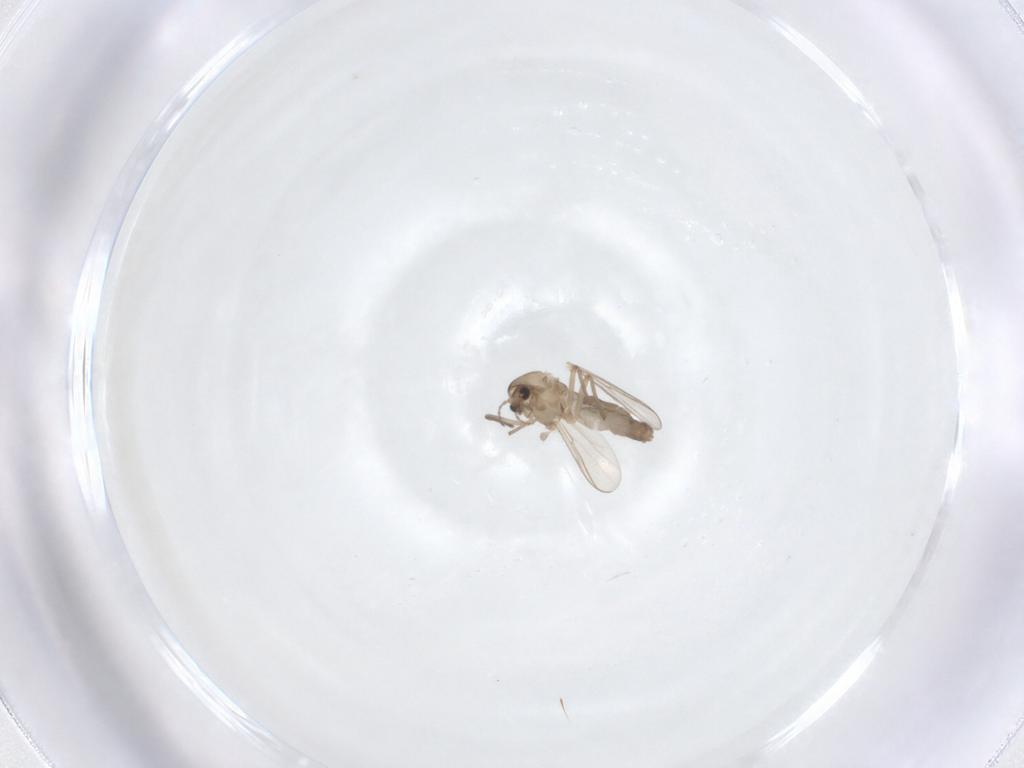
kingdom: Animalia
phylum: Arthropoda
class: Insecta
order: Diptera
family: Chironomidae
